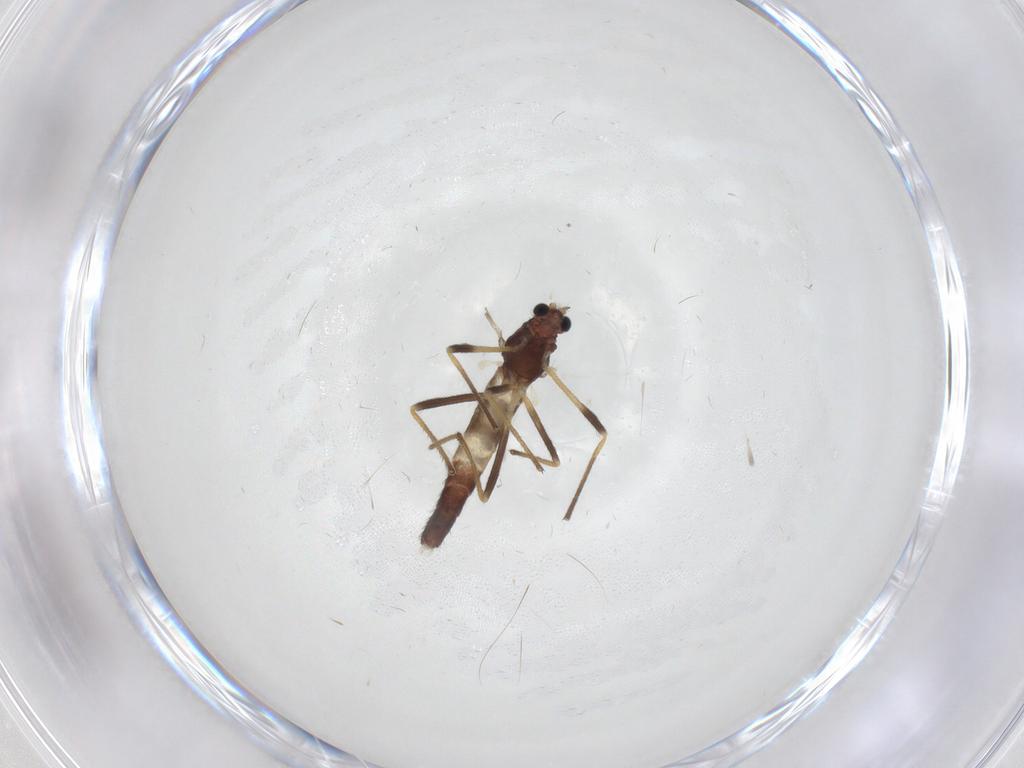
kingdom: Animalia
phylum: Arthropoda
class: Insecta
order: Diptera
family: Chironomidae
